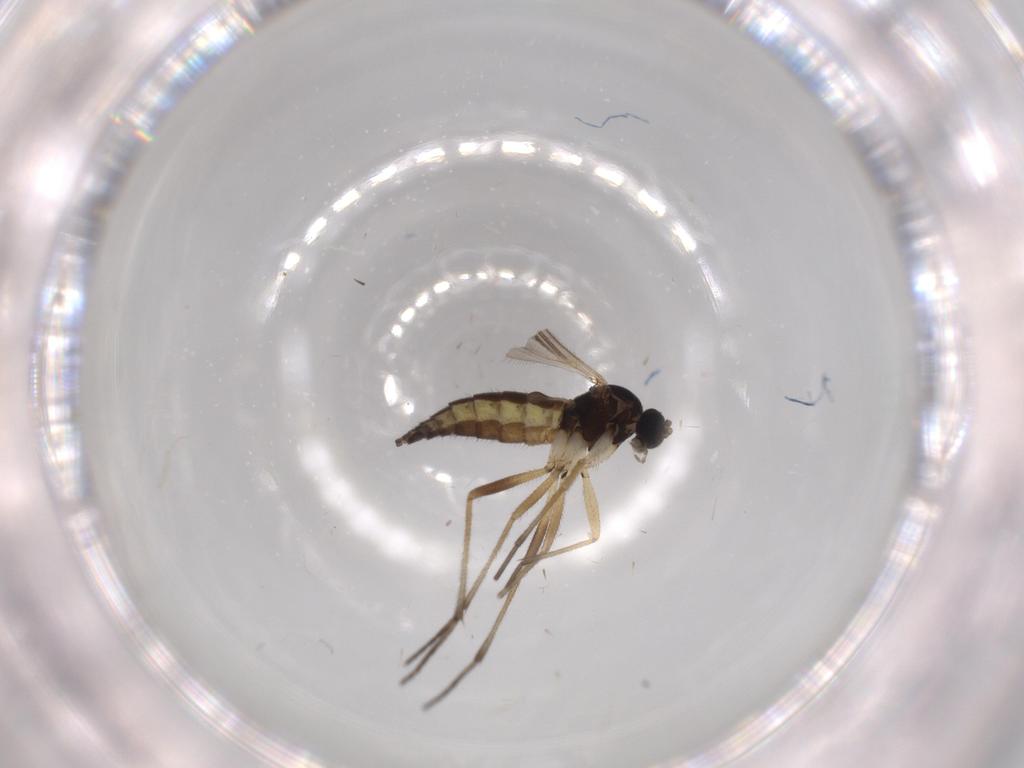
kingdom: Animalia
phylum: Arthropoda
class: Insecta
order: Diptera
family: Sciaridae
